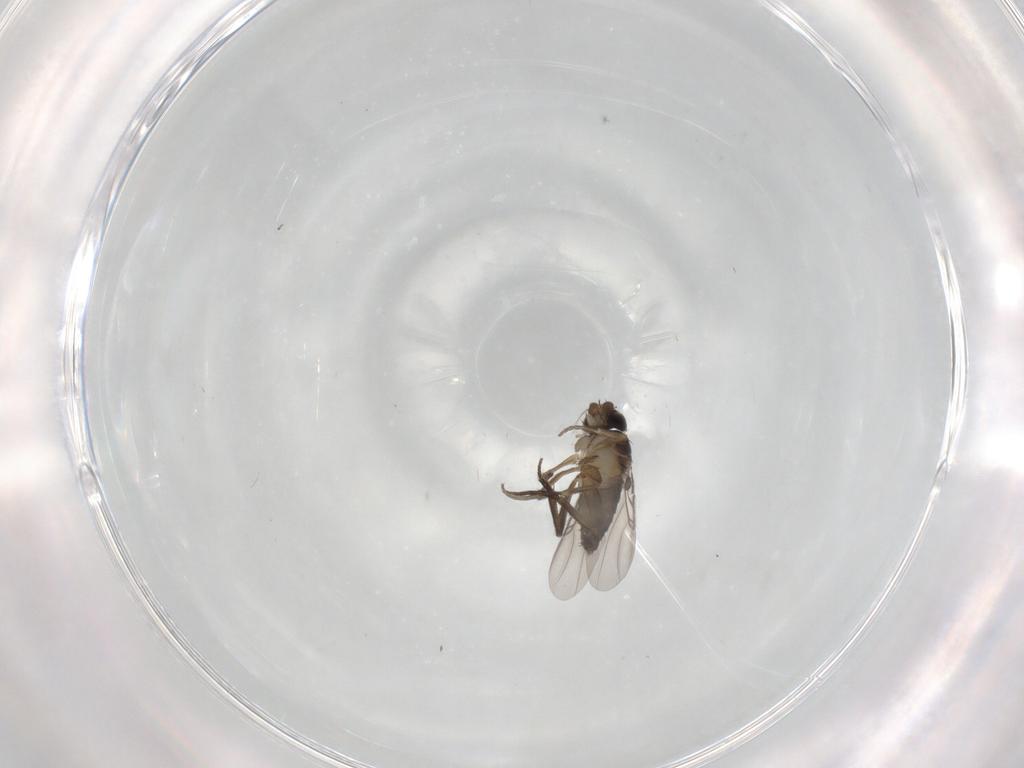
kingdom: Animalia
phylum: Arthropoda
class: Insecta
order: Diptera
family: Phoridae
